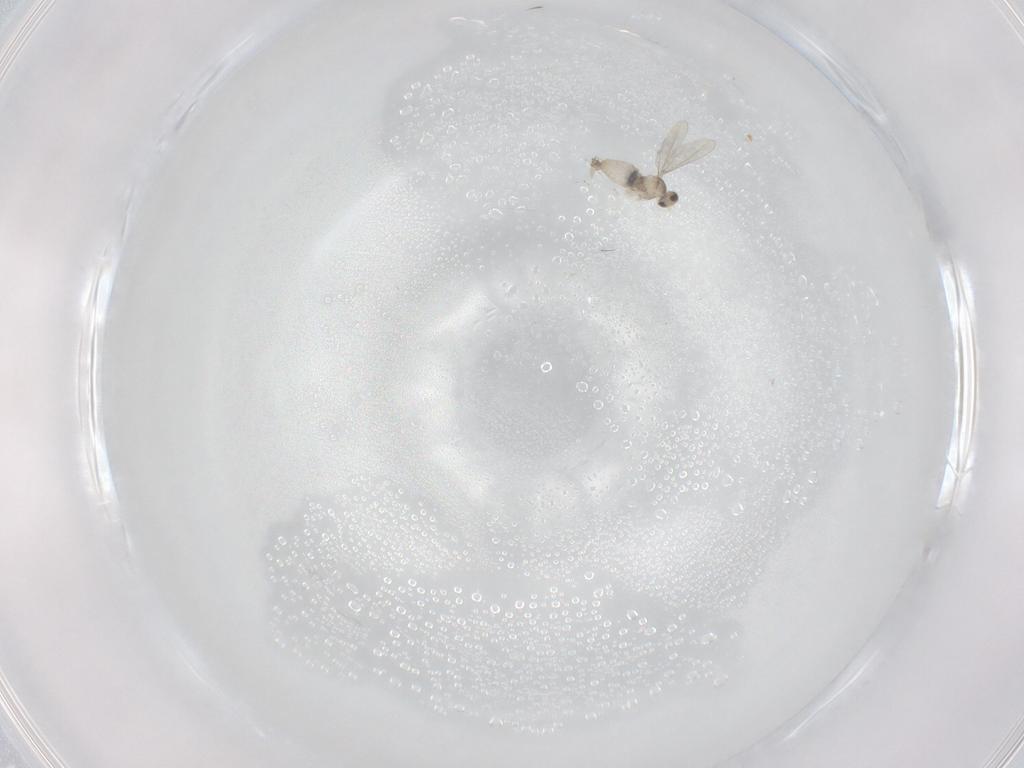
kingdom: Animalia
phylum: Arthropoda
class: Insecta
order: Diptera
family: Cecidomyiidae
